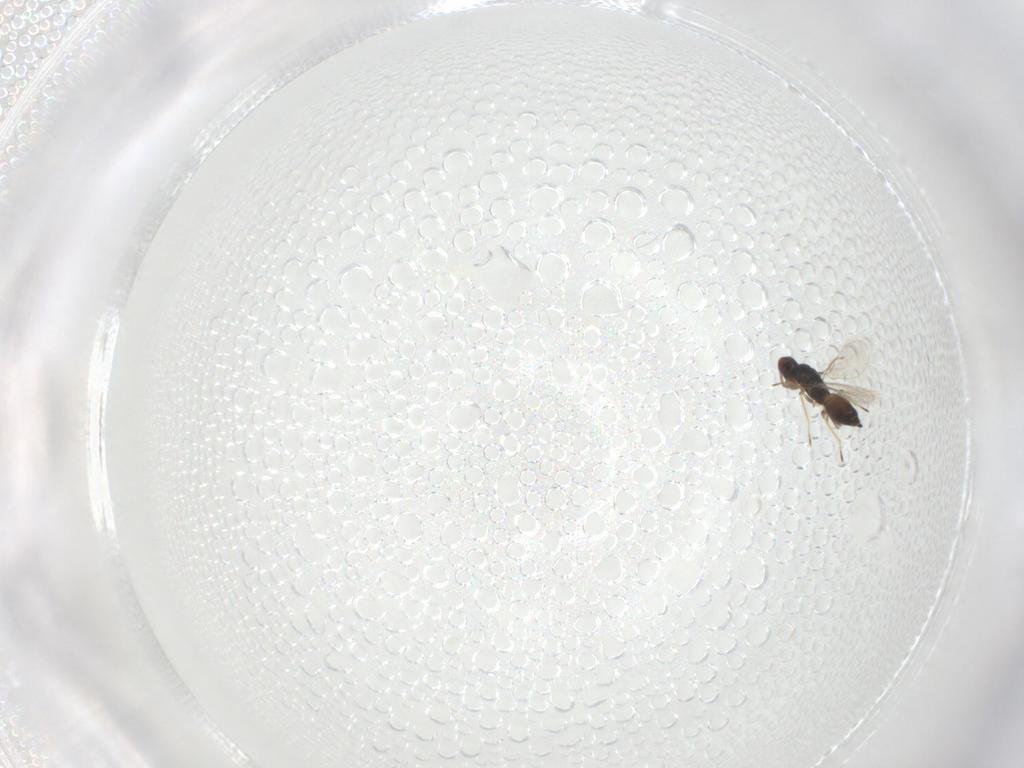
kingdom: Animalia
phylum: Arthropoda
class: Insecta
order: Hymenoptera
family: Eulophidae
